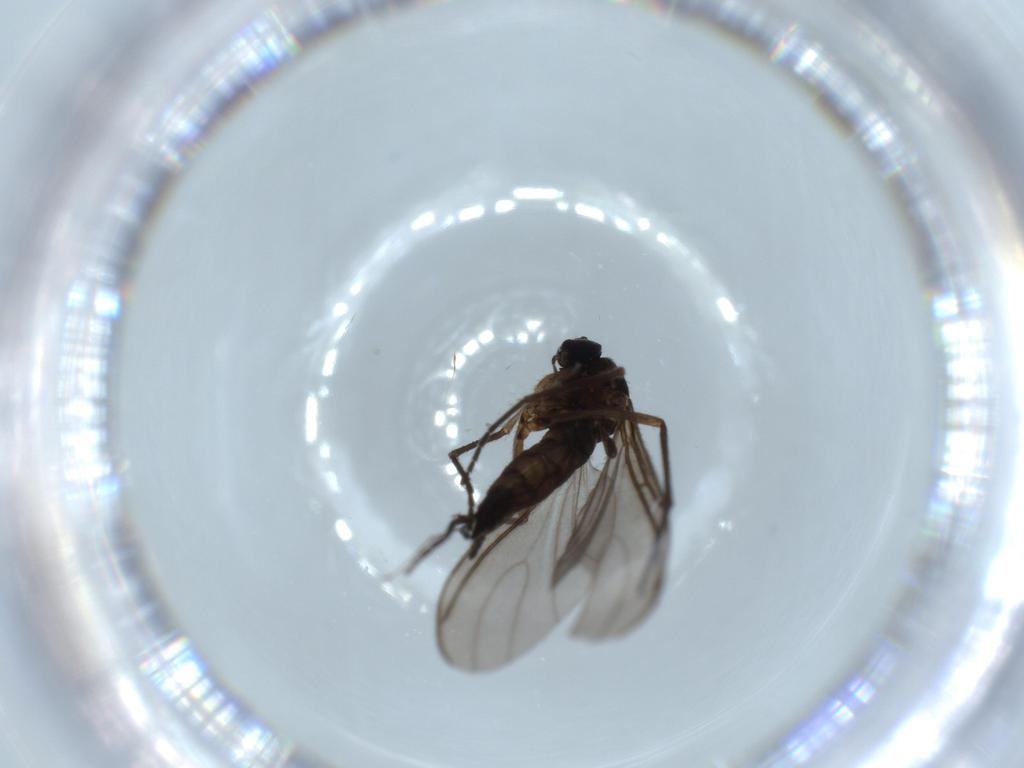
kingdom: Animalia
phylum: Arthropoda
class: Insecta
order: Diptera
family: Sciaridae
